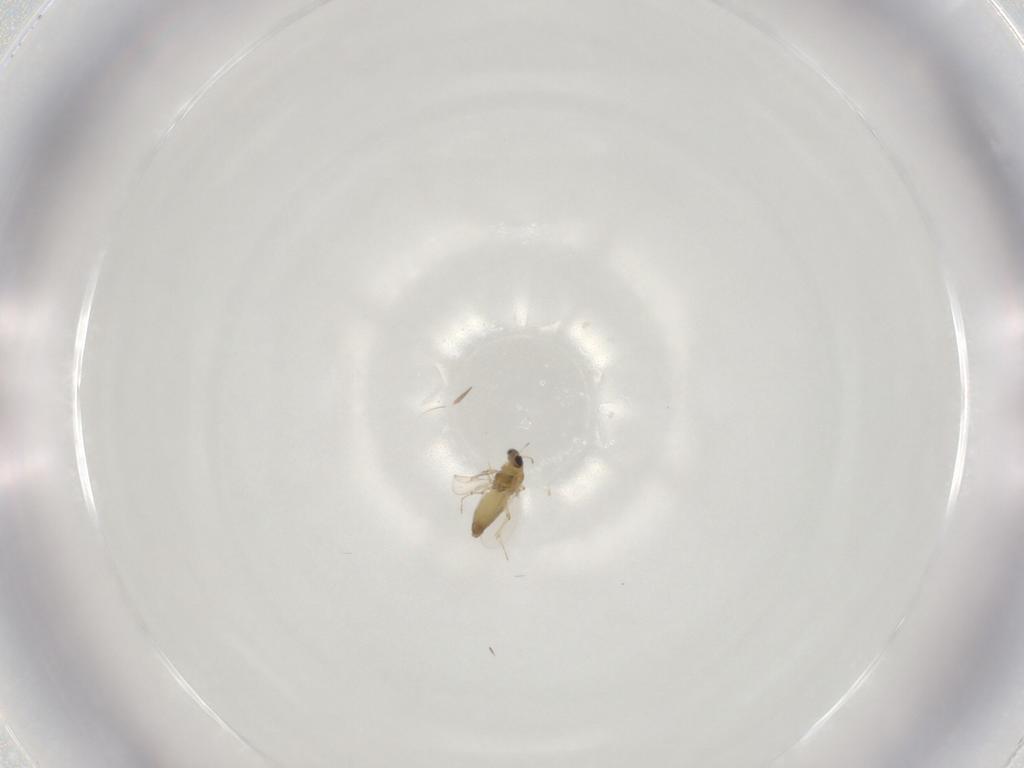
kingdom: Animalia
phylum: Arthropoda
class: Insecta
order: Diptera
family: Chironomidae
